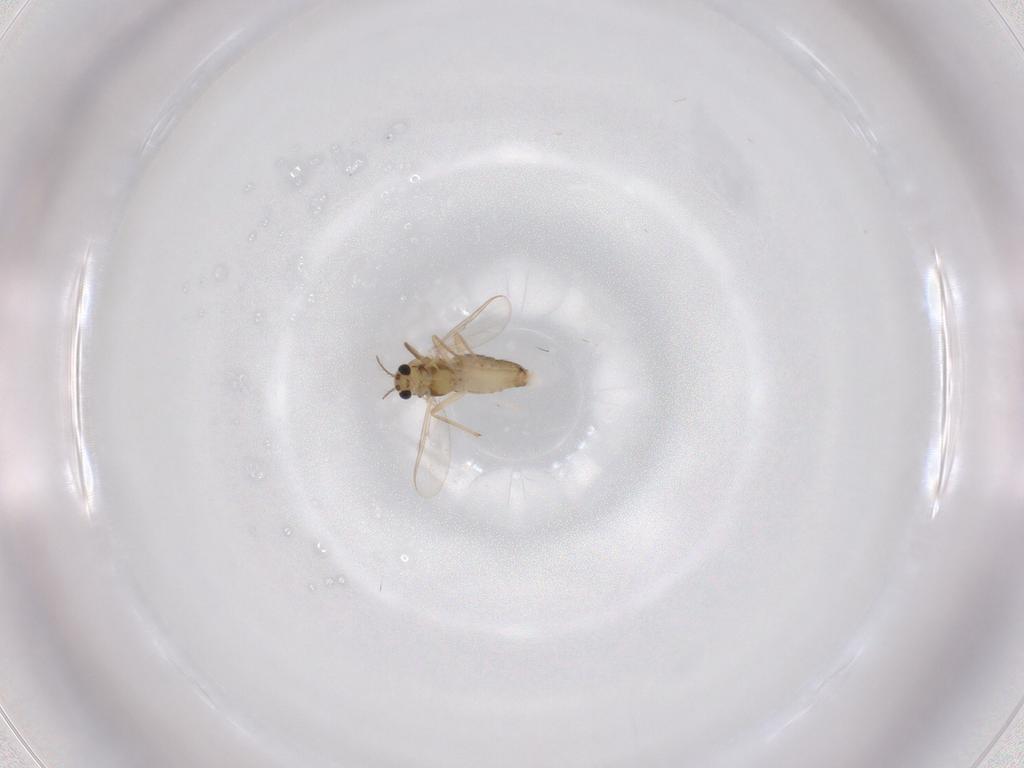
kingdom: Animalia
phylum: Arthropoda
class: Insecta
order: Diptera
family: Chironomidae
